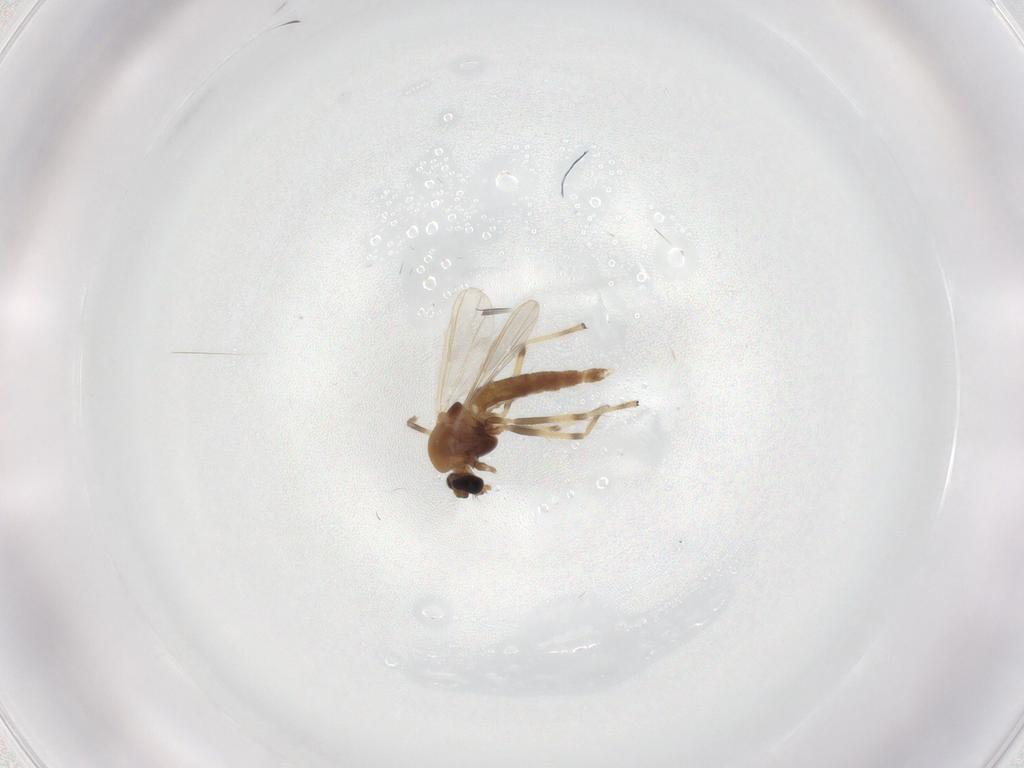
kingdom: Animalia
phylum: Arthropoda
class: Insecta
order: Diptera
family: Chironomidae
